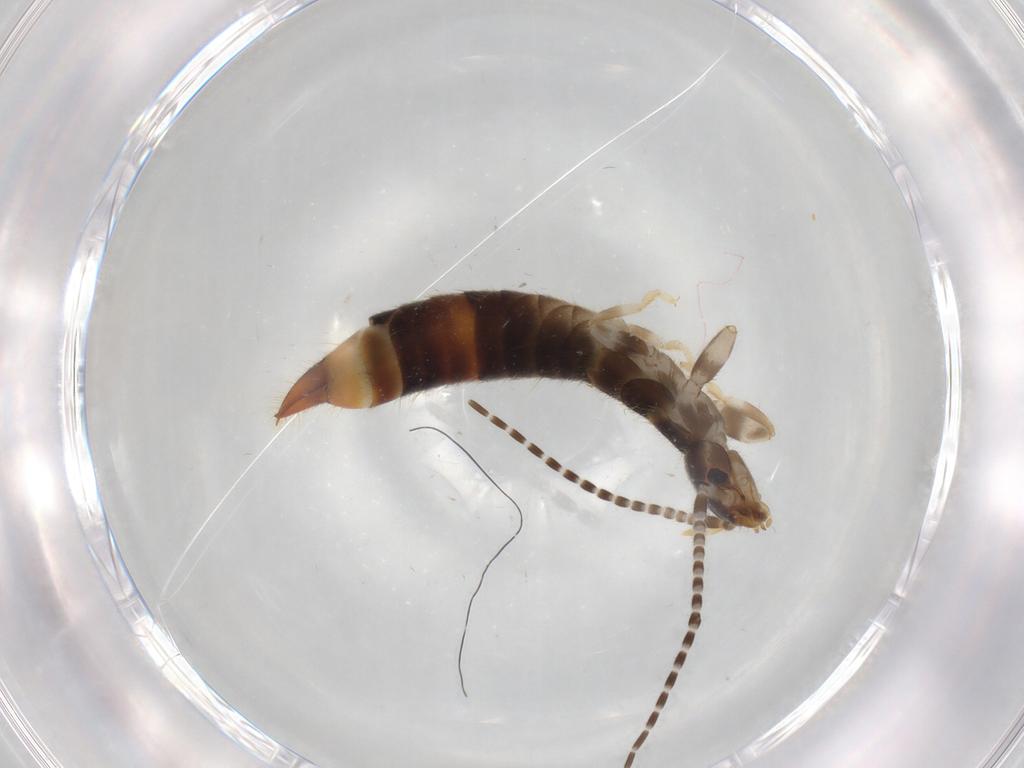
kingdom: Animalia
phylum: Arthropoda
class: Insecta
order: Dermaptera
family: Forficulidae
